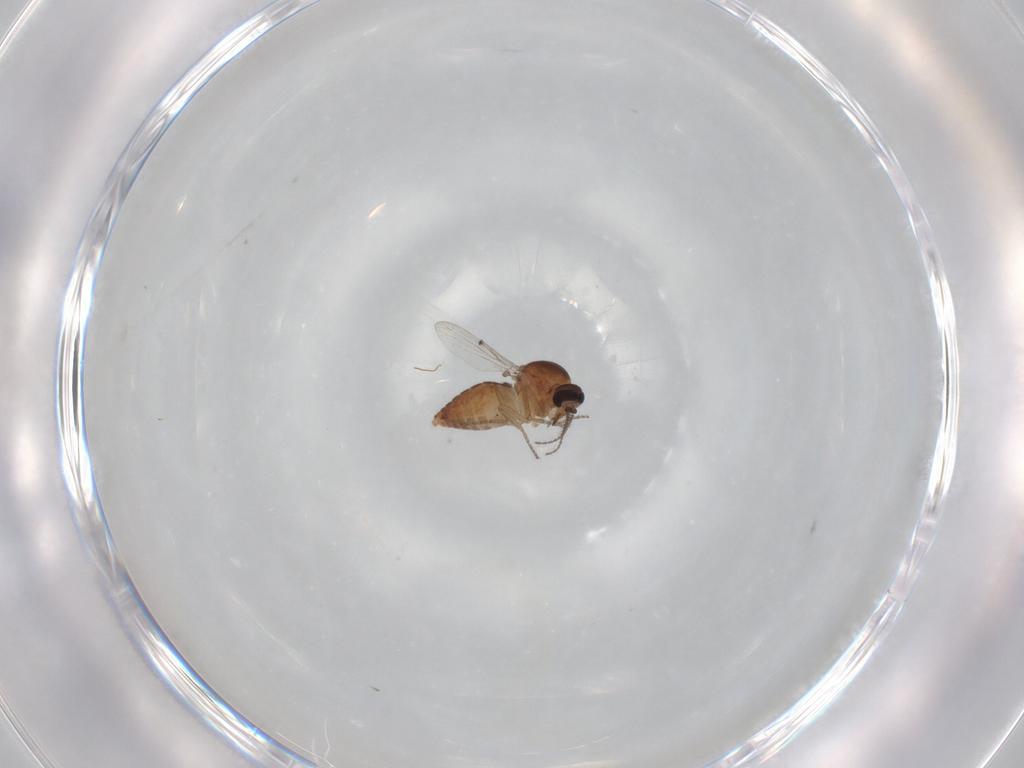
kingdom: Animalia
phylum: Arthropoda
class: Insecta
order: Diptera
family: Ceratopogonidae
